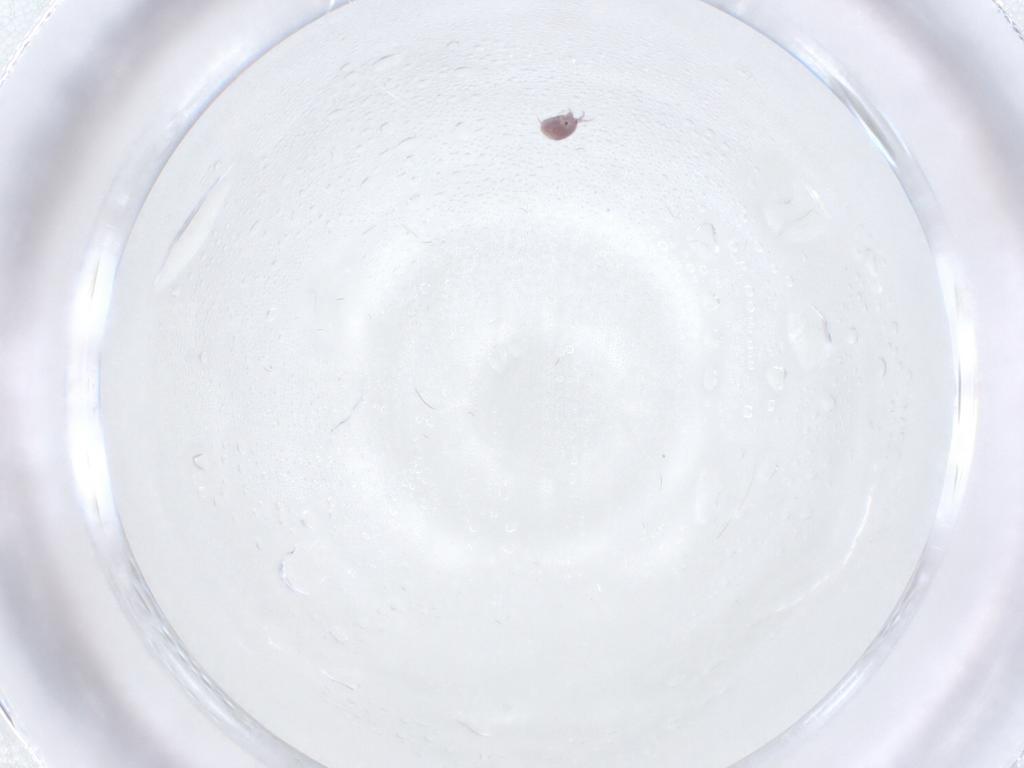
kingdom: Animalia
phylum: Arthropoda
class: Arachnida
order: Trombidiformes
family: Pionidae
